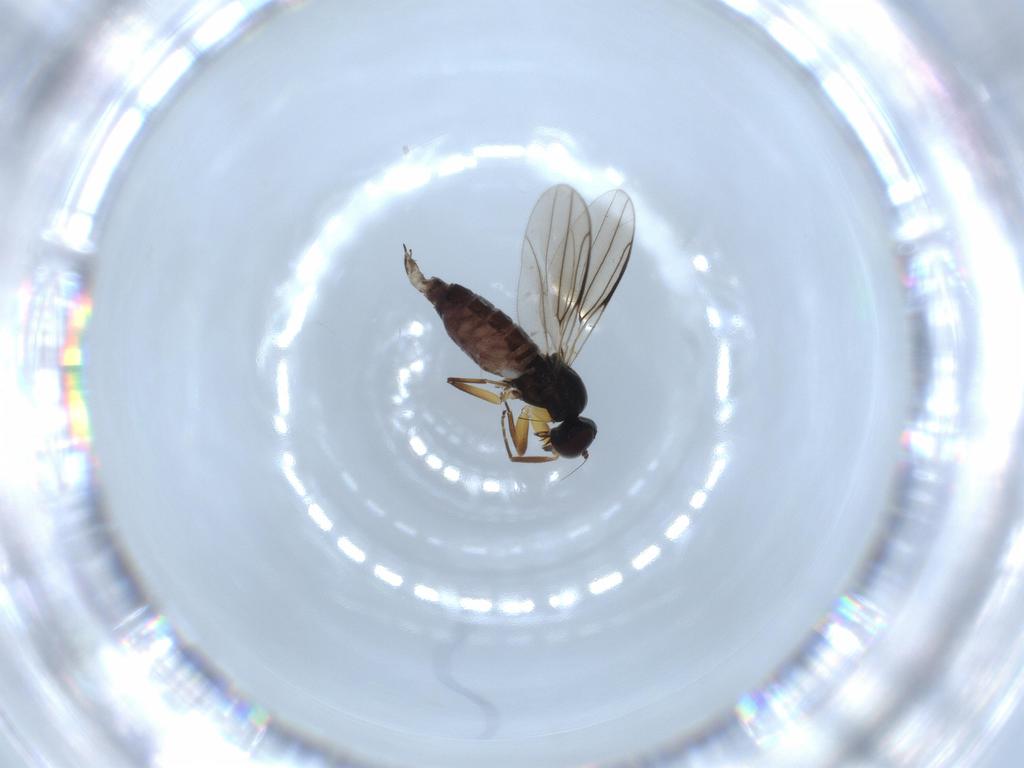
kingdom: Animalia
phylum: Arthropoda
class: Insecta
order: Diptera
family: Hybotidae
